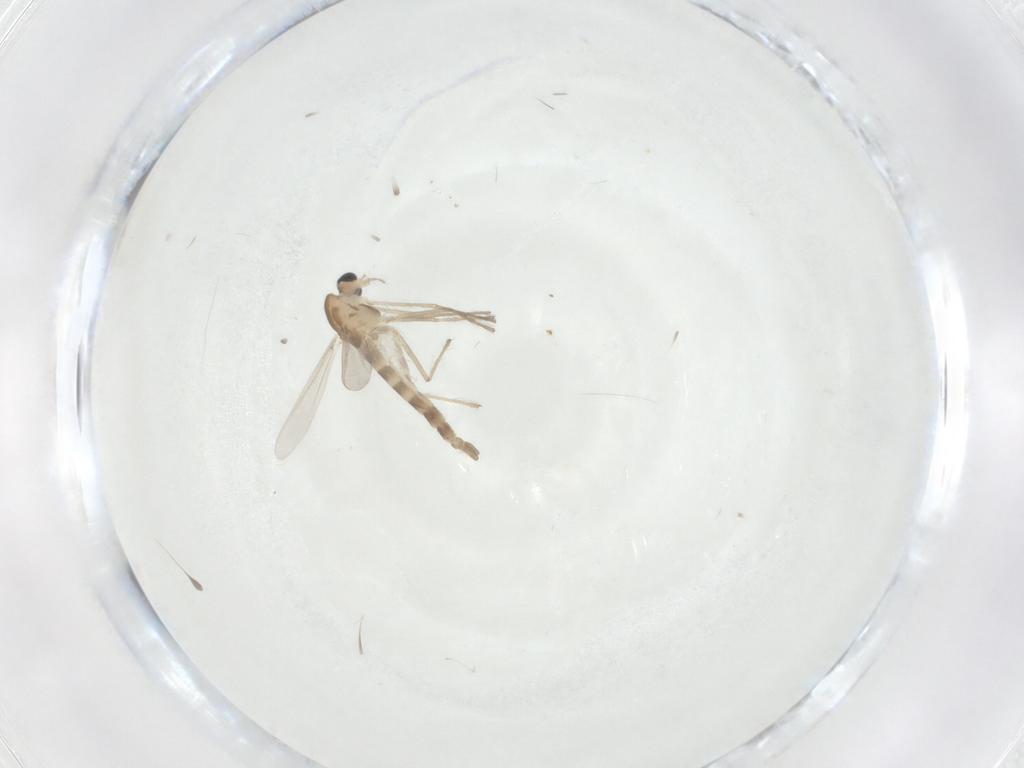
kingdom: Animalia
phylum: Arthropoda
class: Insecta
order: Diptera
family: Chironomidae
